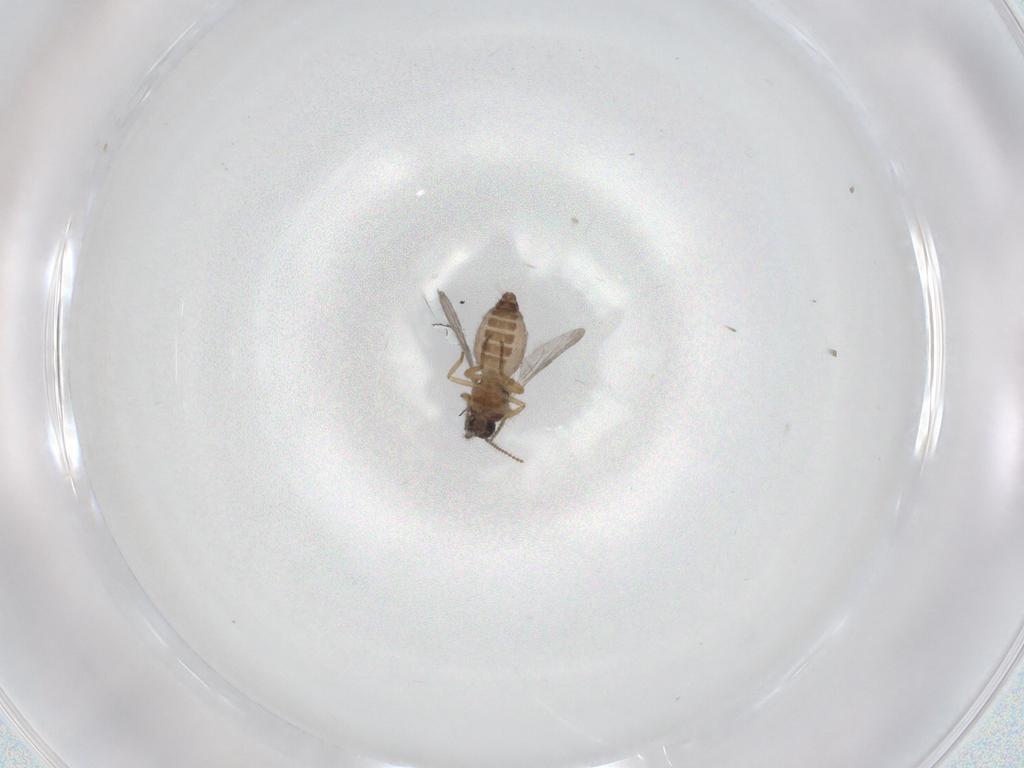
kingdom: Animalia
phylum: Arthropoda
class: Insecta
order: Diptera
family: Ceratopogonidae
